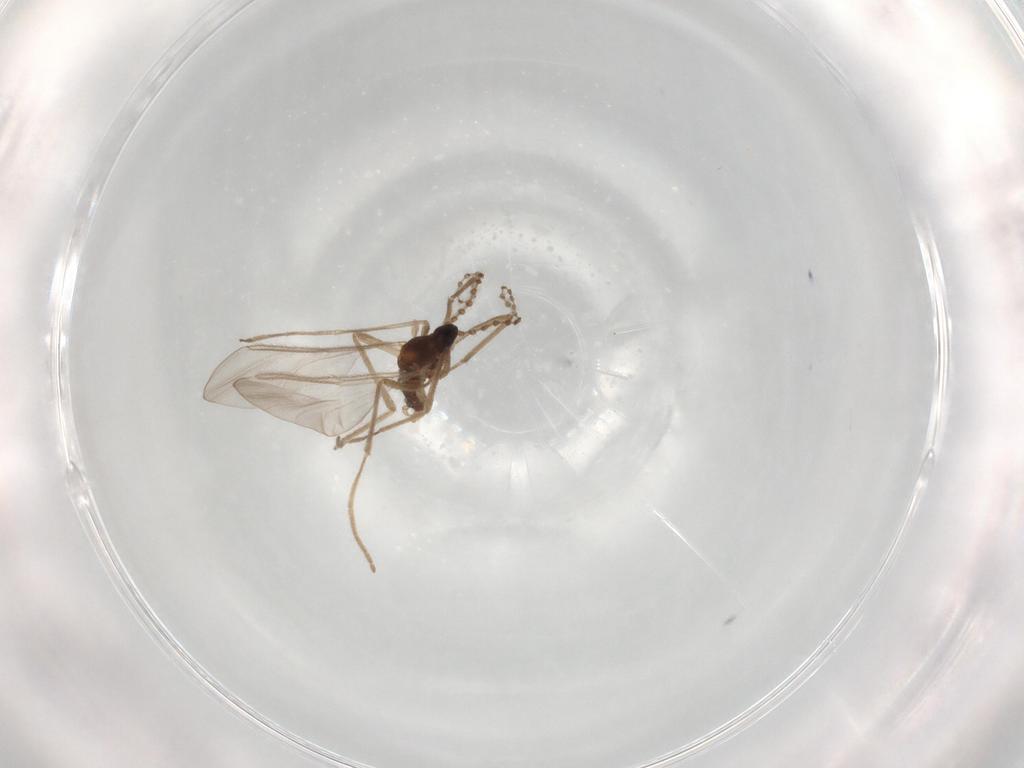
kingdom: Animalia
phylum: Arthropoda
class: Insecta
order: Diptera
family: Cecidomyiidae
